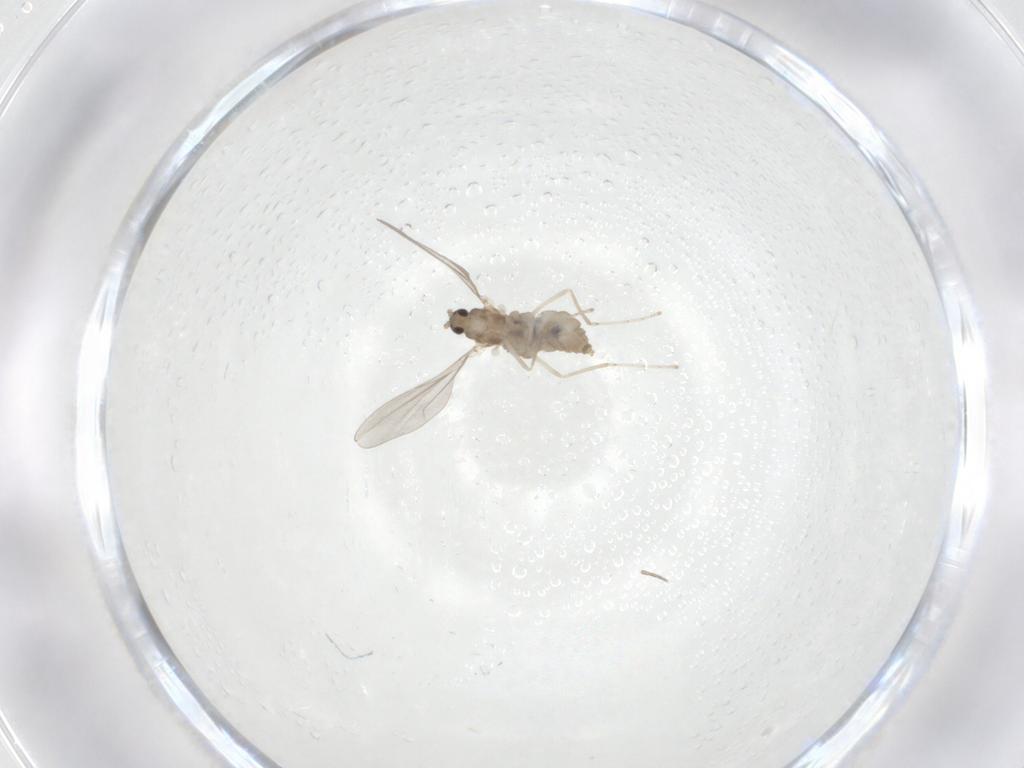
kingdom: Animalia
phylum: Arthropoda
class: Insecta
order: Diptera
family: Phoridae
